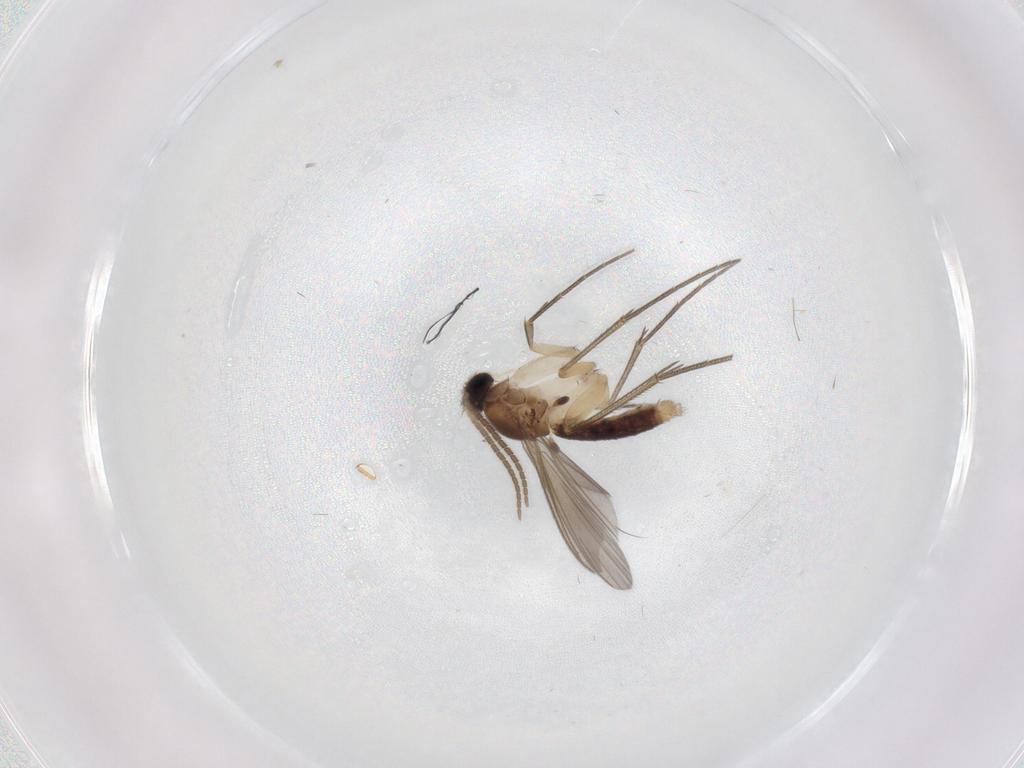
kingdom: Animalia
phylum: Arthropoda
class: Insecta
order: Diptera
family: Mycetophilidae
